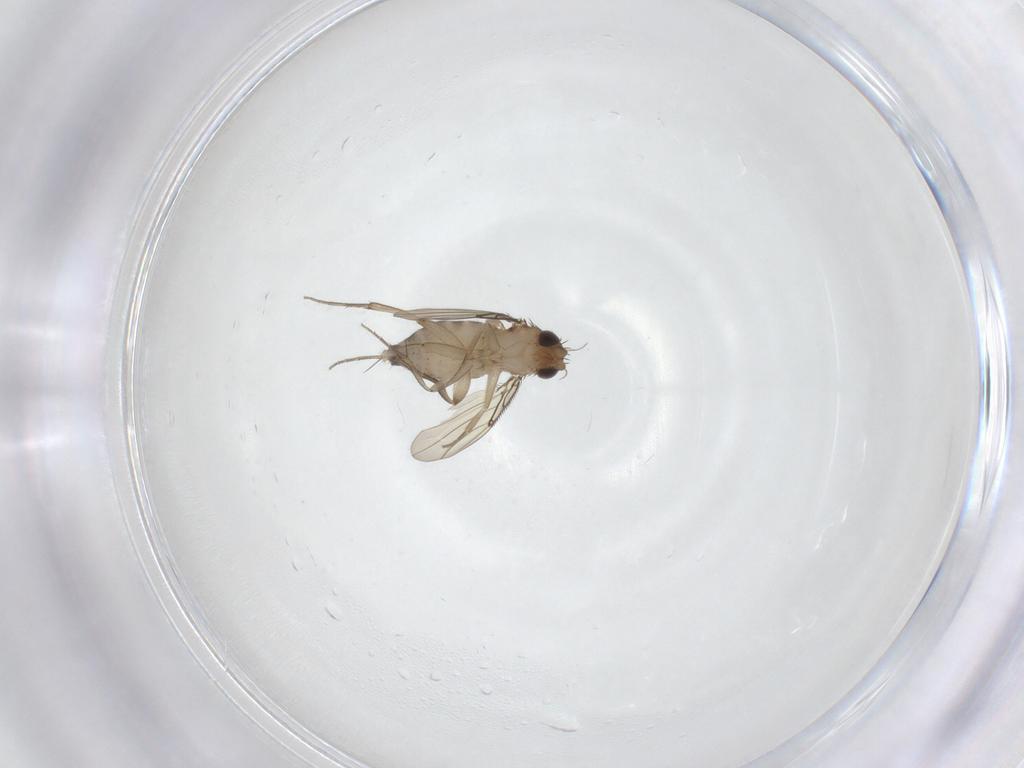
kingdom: Animalia
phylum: Arthropoda
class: Insecta
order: Diptera
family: Phoridae
